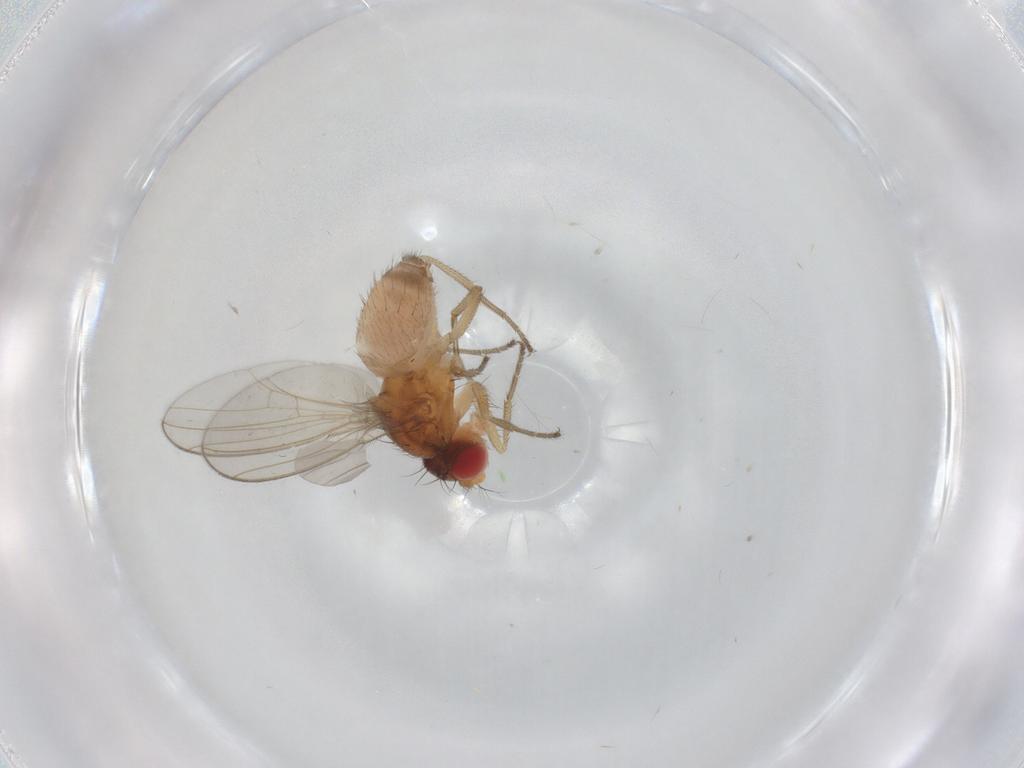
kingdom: Animalia
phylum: Arthropoda
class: Insecta
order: Diptera
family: Drosophilidae
